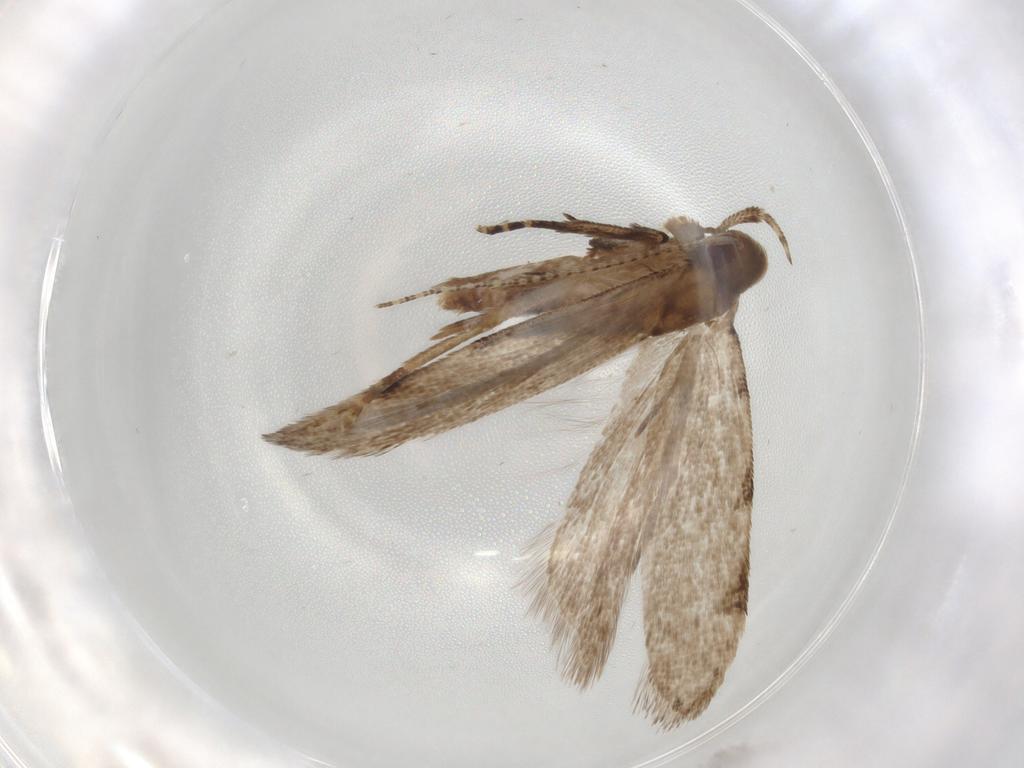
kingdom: Animalia
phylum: Arthropoda
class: Insecta
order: Lepidoptera
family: Gelechiidae
